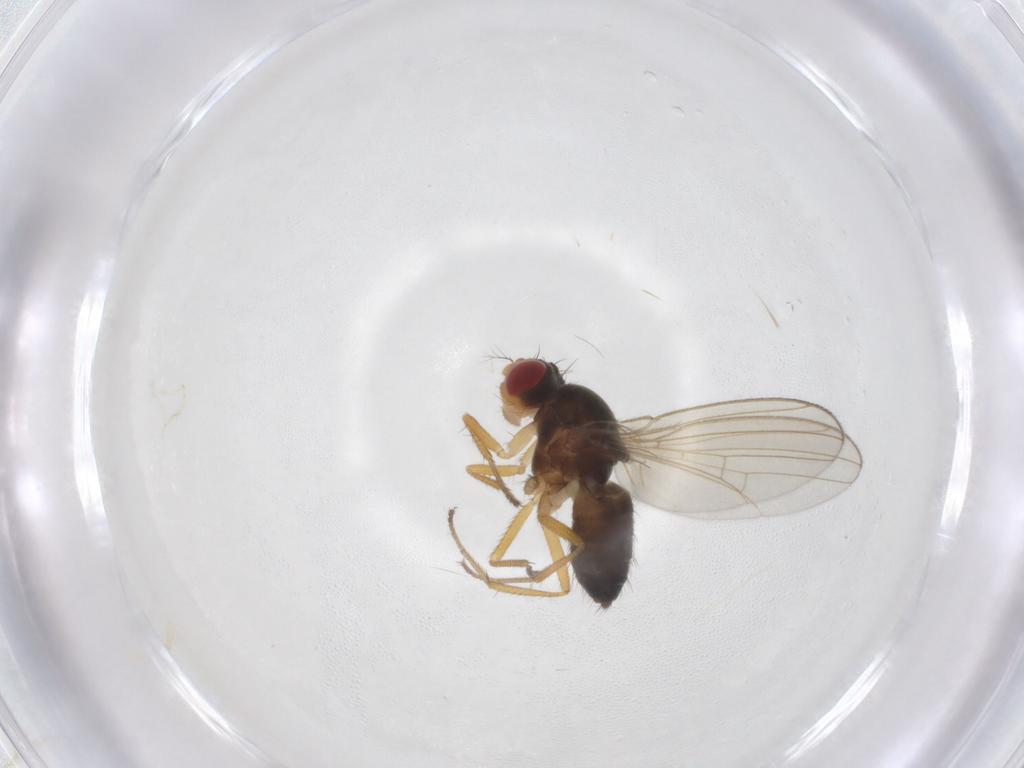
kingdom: Animalia
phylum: Arthropoda
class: Insecta
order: Diptera
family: Drosophilidae
